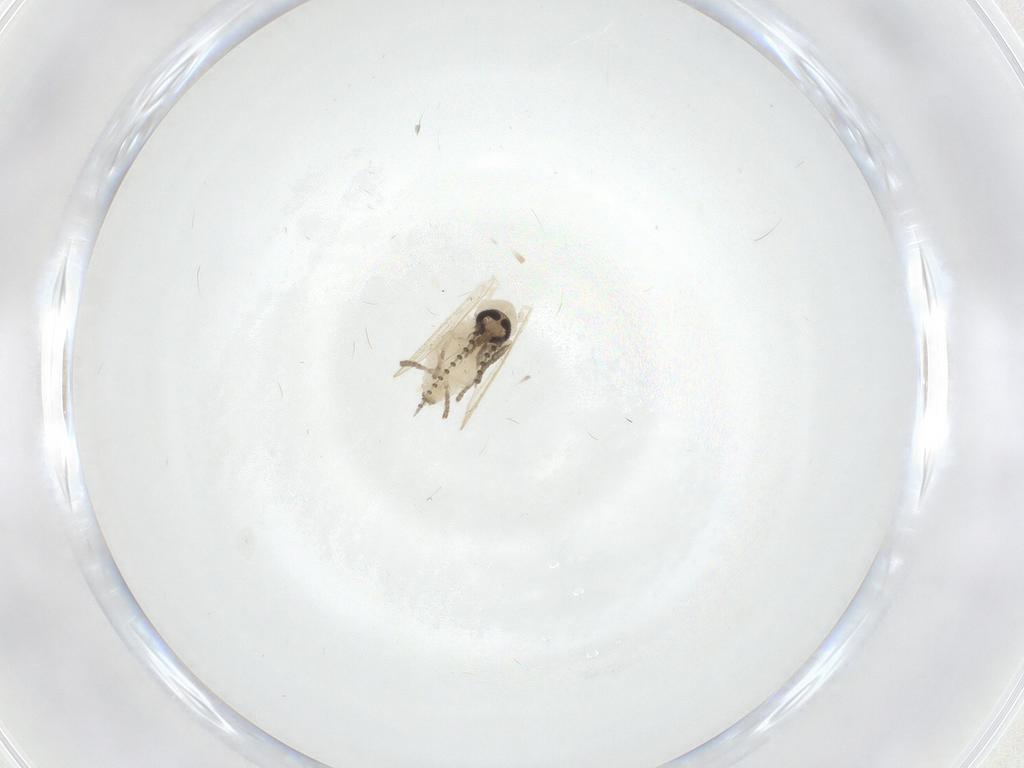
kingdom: Animalia
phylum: Arthropoda
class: Insecta
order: Diptera
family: Psychodidae
